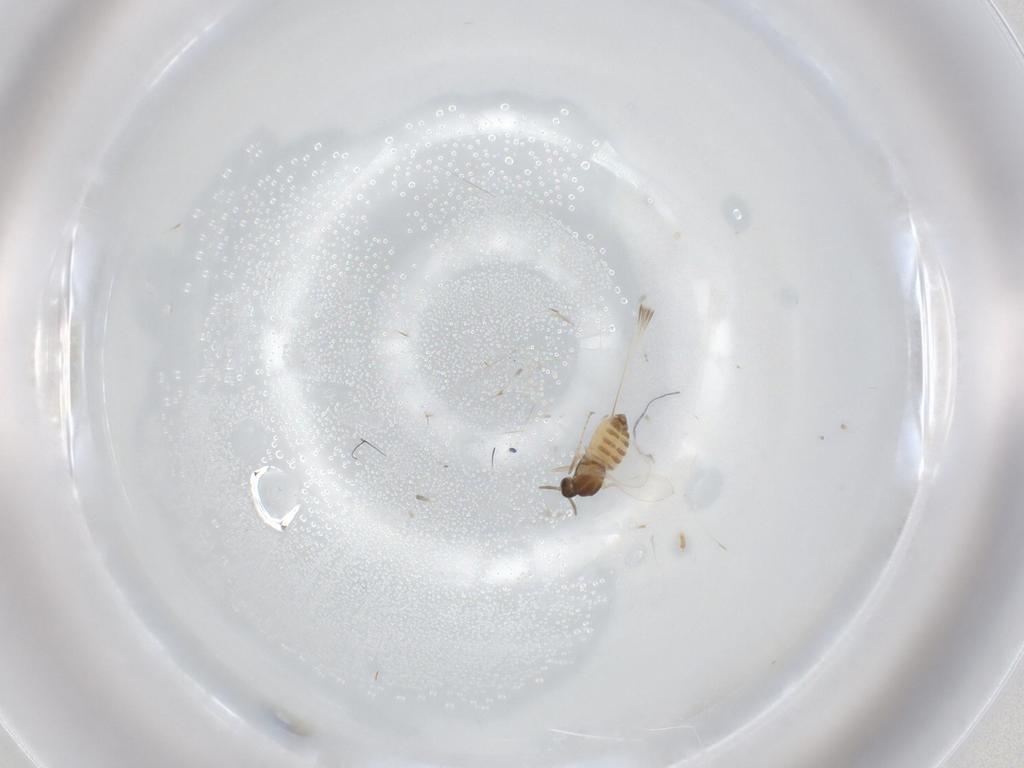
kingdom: Animalia
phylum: Arthropoda
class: Insecta
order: Diptera
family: Cecidomyiidae
